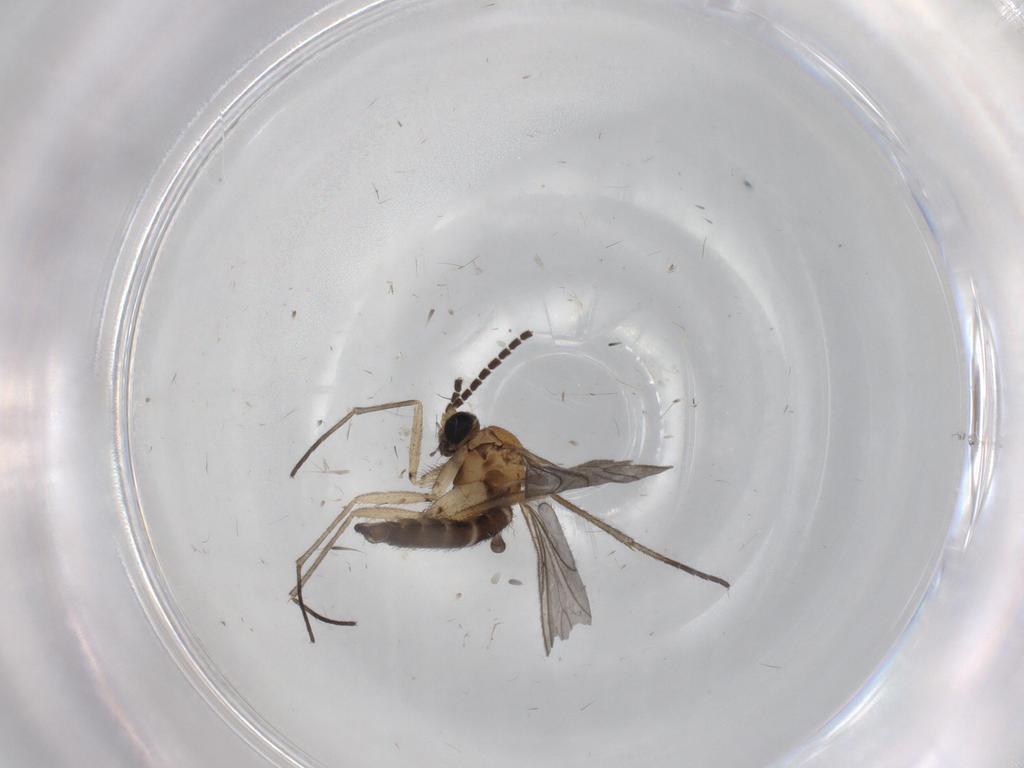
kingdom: Animalia
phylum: Arthropoda
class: Insecta
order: Diptera
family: Sciaridae
